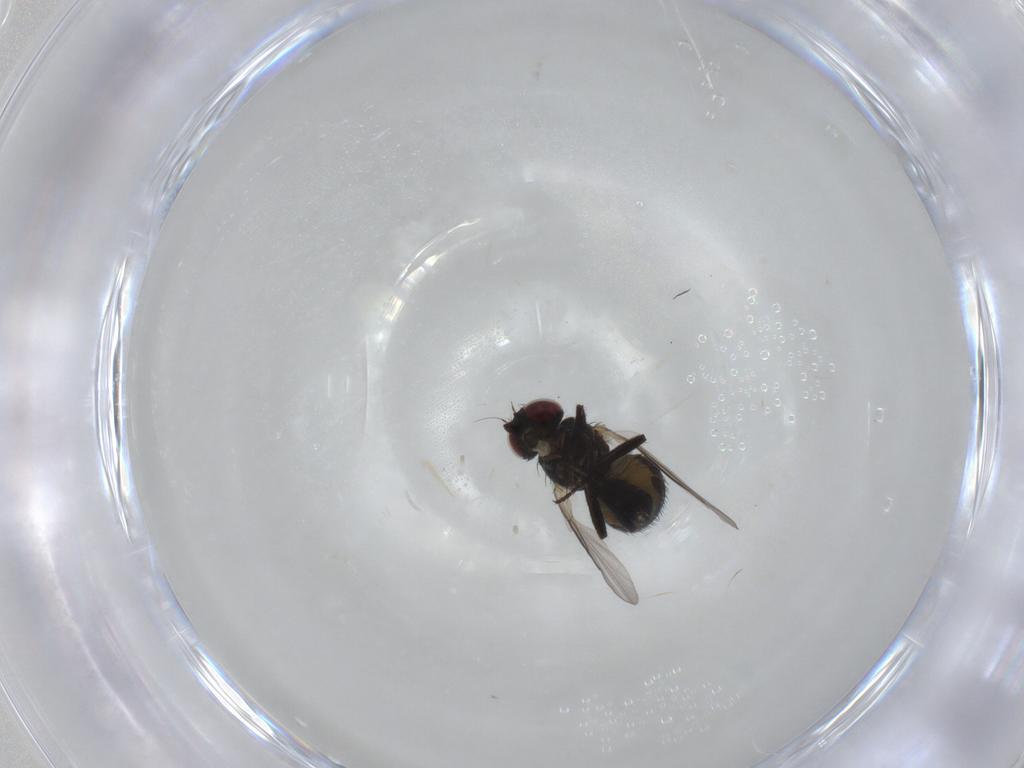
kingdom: Animalia
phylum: Arthropoda
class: Insecta
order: Diptera
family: Agromyzidae
